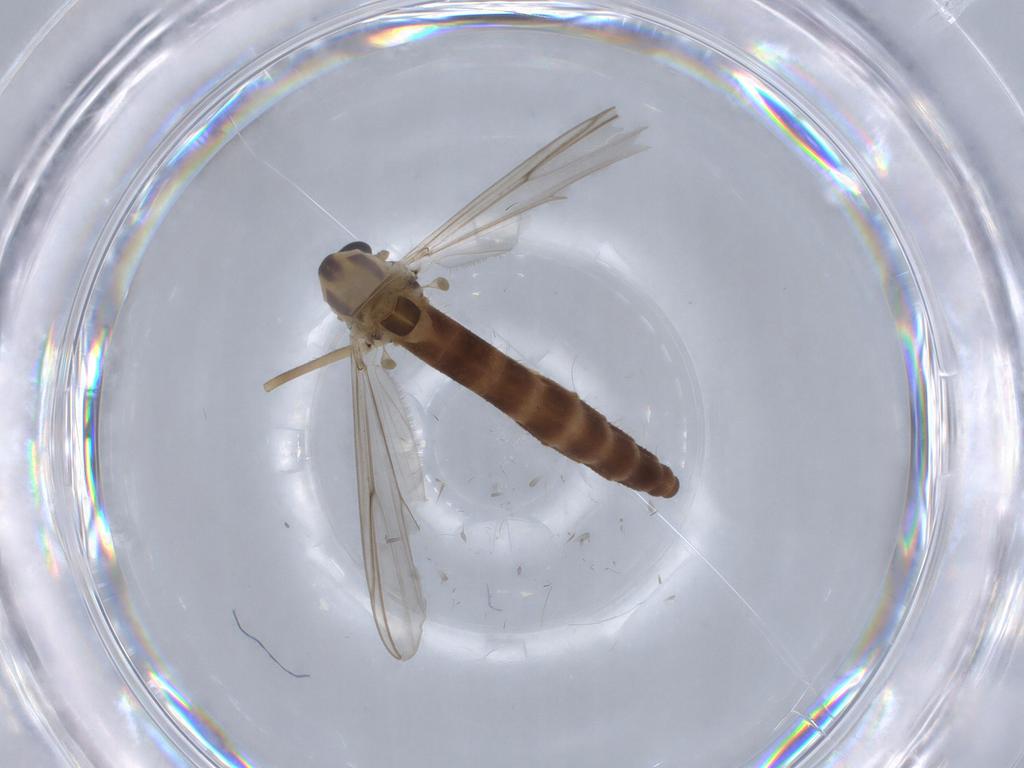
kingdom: Animalia
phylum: Arthropoda
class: Insecta
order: Diptera
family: Chironomidae
